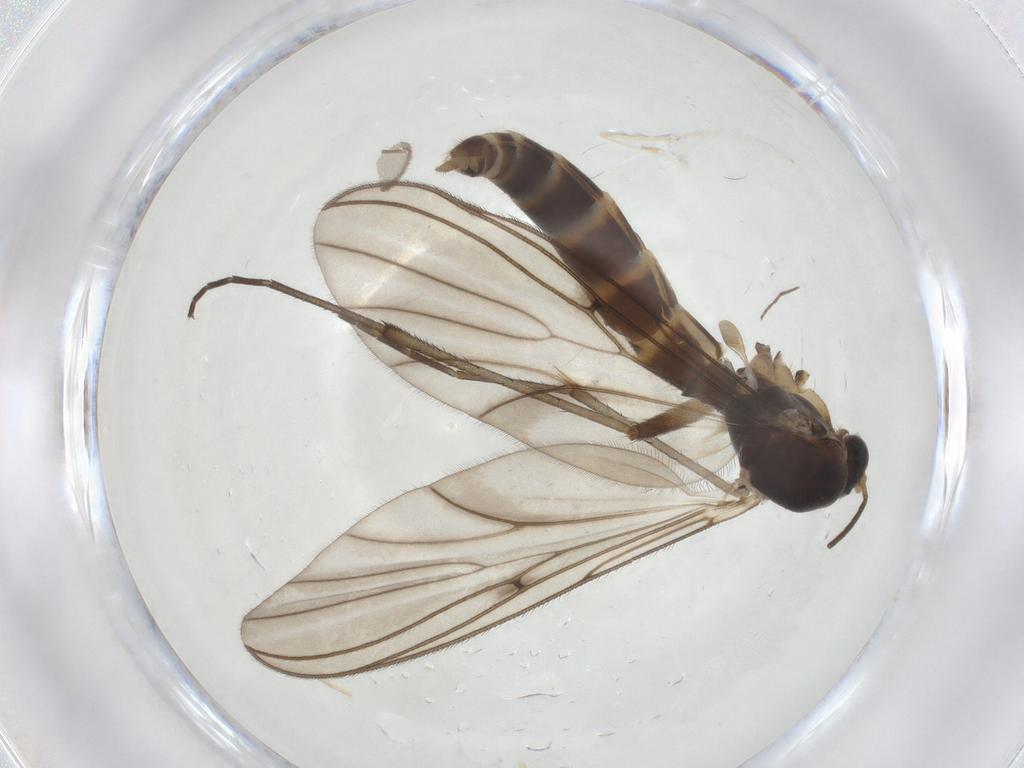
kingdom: Animalia
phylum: Arthropoda
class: Insecta
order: Diptera
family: Mycetophilidae
